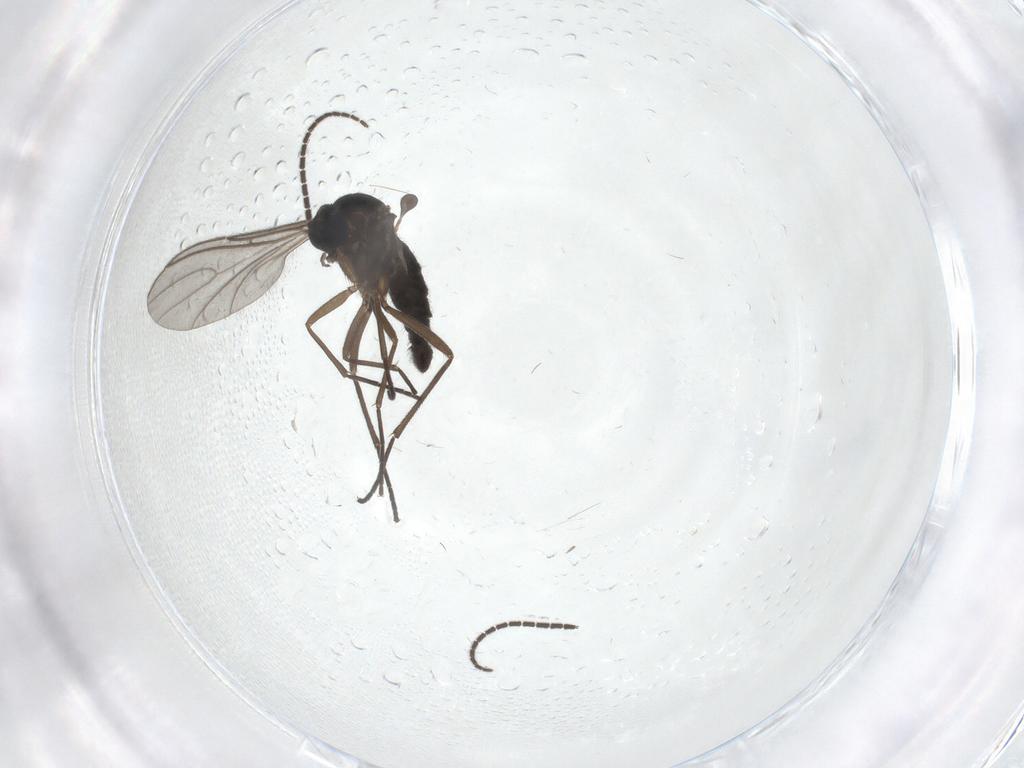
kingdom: Animalia
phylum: Arthropoda
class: Insecta
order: Diptera
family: Sciaridae
